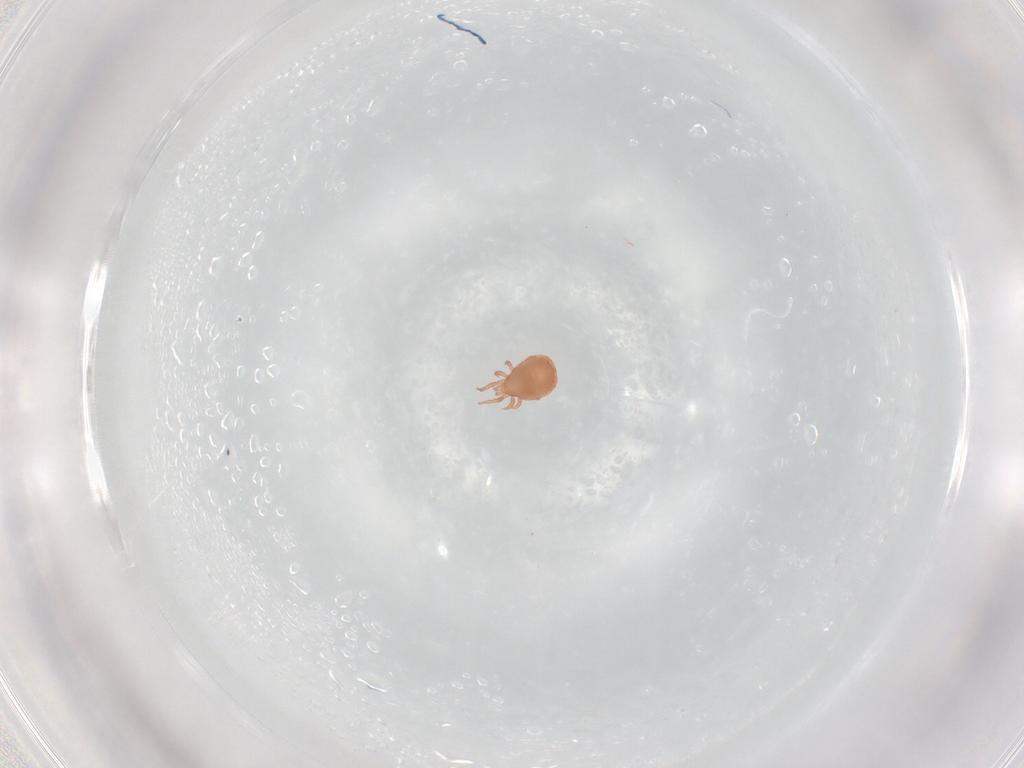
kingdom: Animalia
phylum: Arthropoda
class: Arachnida
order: Mesostigmata
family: Zerconidae
